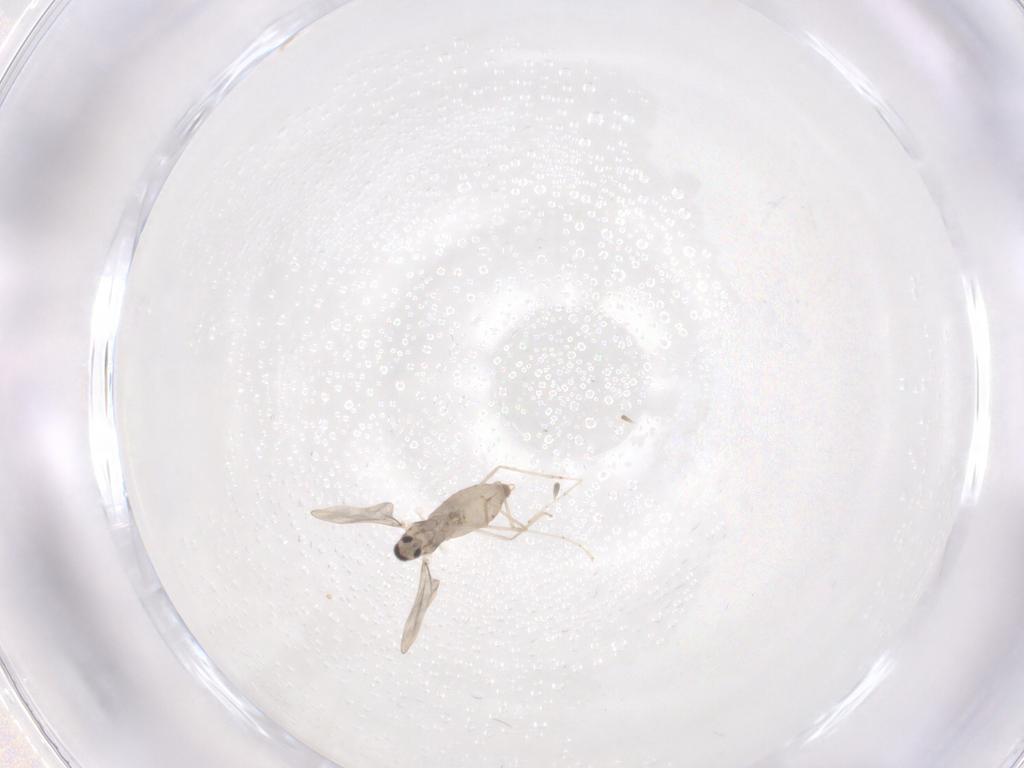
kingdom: Animalia
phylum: Arthropoda
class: Insecta
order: Diptera
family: Cecidomyiidae
